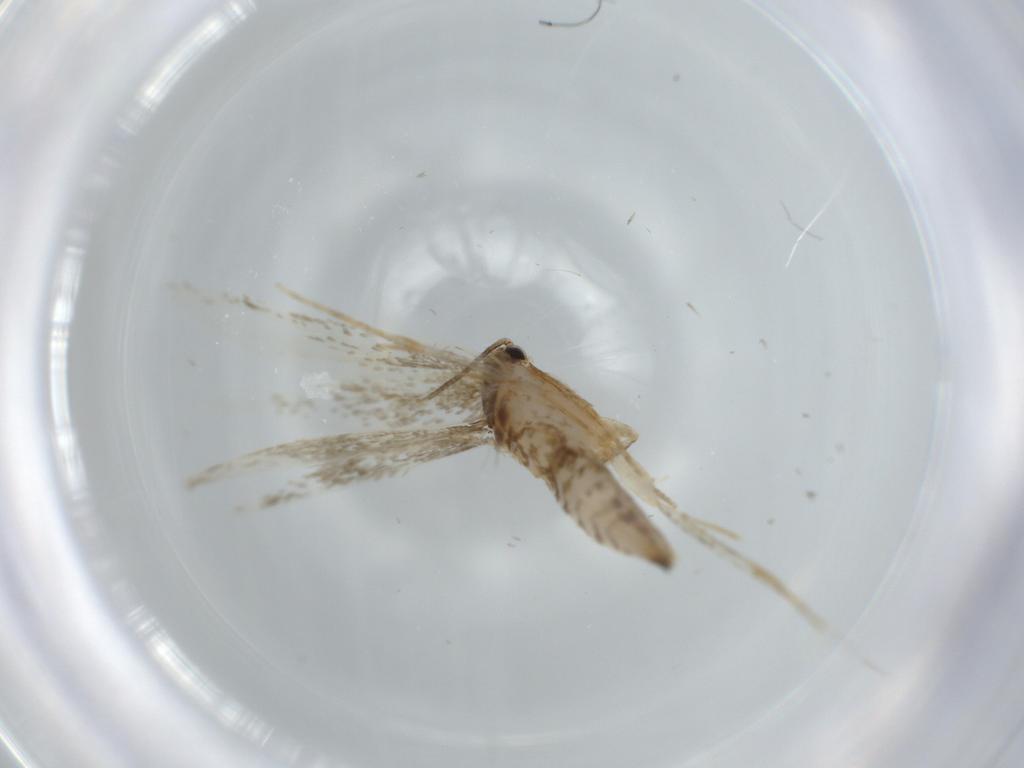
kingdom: Animalia
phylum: Arthropoda
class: Insecta
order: Lepidoptera
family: Tineidae
